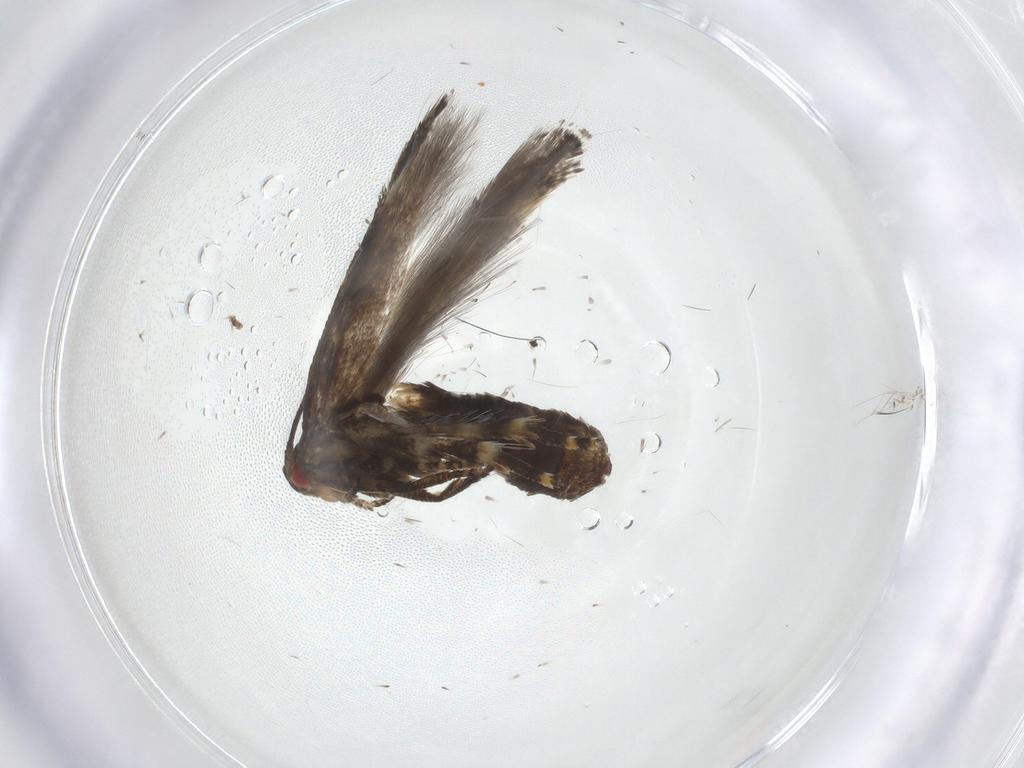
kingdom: Animalia
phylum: Arthropoda
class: Insecta
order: Lepidoptera
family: Momphidae
